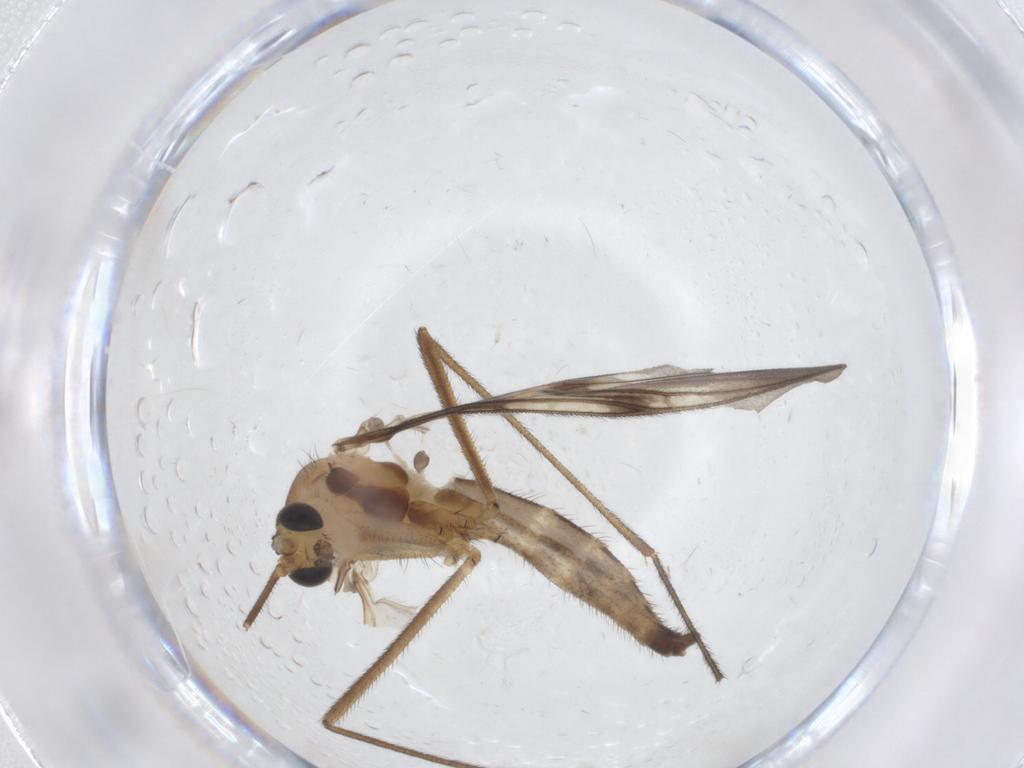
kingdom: Animalia
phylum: Arthropoda
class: Insecta
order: Diptera
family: Keroplatidae
